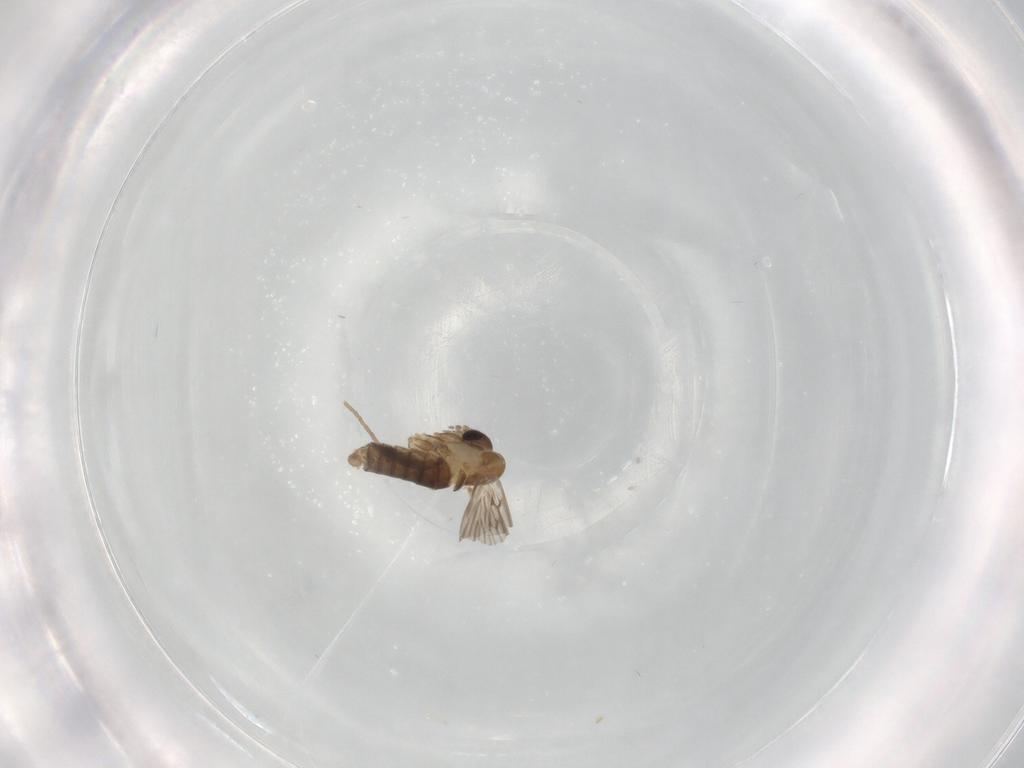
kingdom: Animalia
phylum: Arthropoda
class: Insecta
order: Diptera
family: Psychodidae
